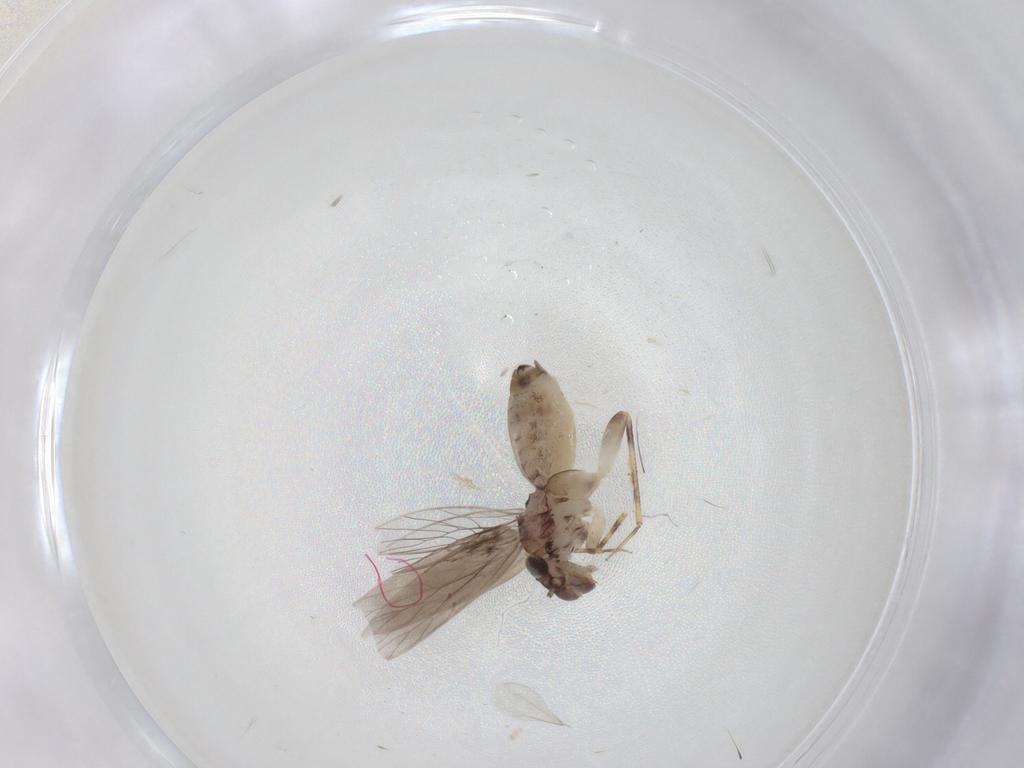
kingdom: Animalia
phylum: Arthropoda
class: Insecta
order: Psocodea
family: Lepidopsocidae
